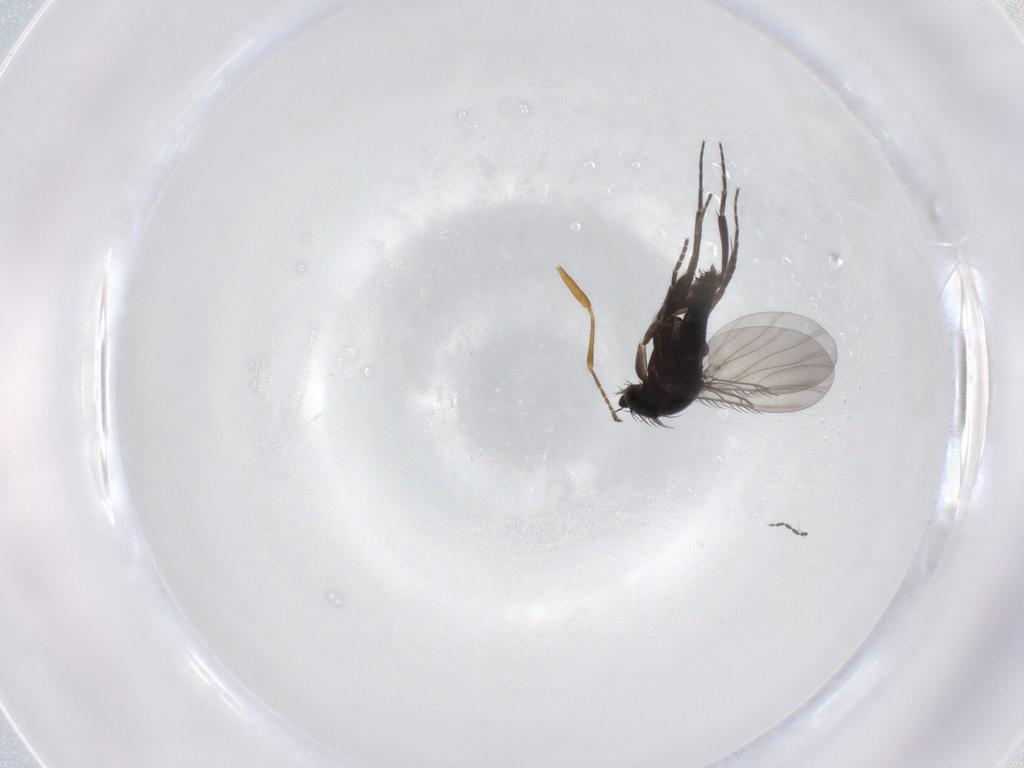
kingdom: Animalia
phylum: Arthropoda
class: Insecta
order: Diptera
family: Phoridae
